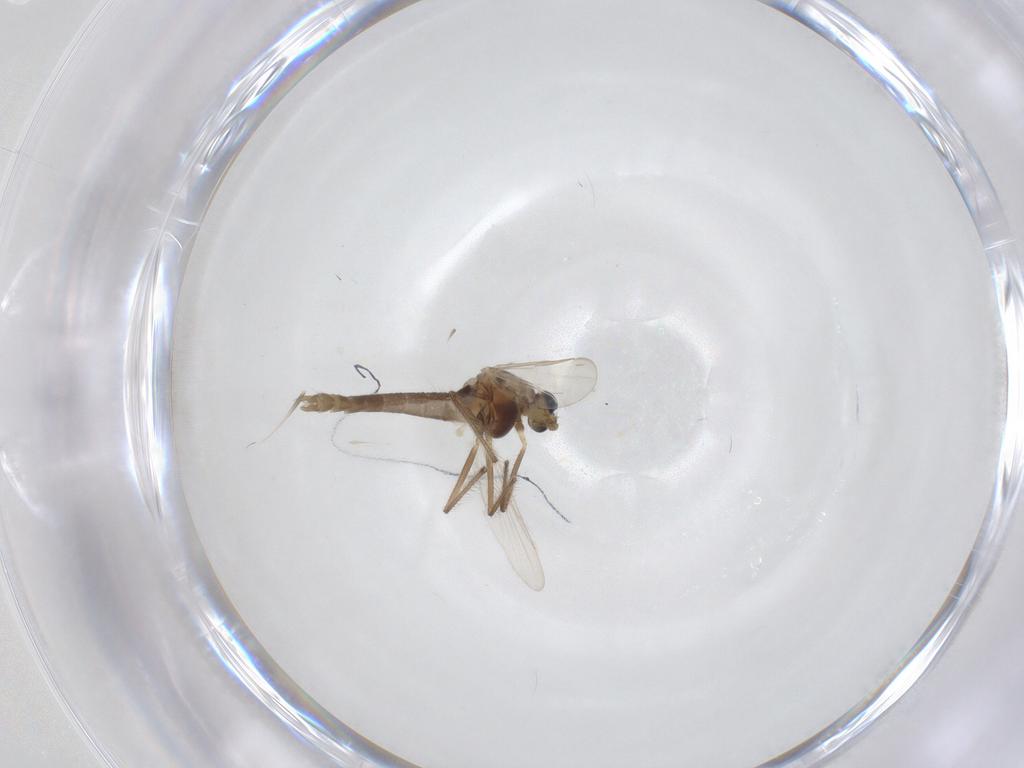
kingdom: Animalia
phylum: Arthropoda
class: Insecta
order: Diptera
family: Chironomidae
